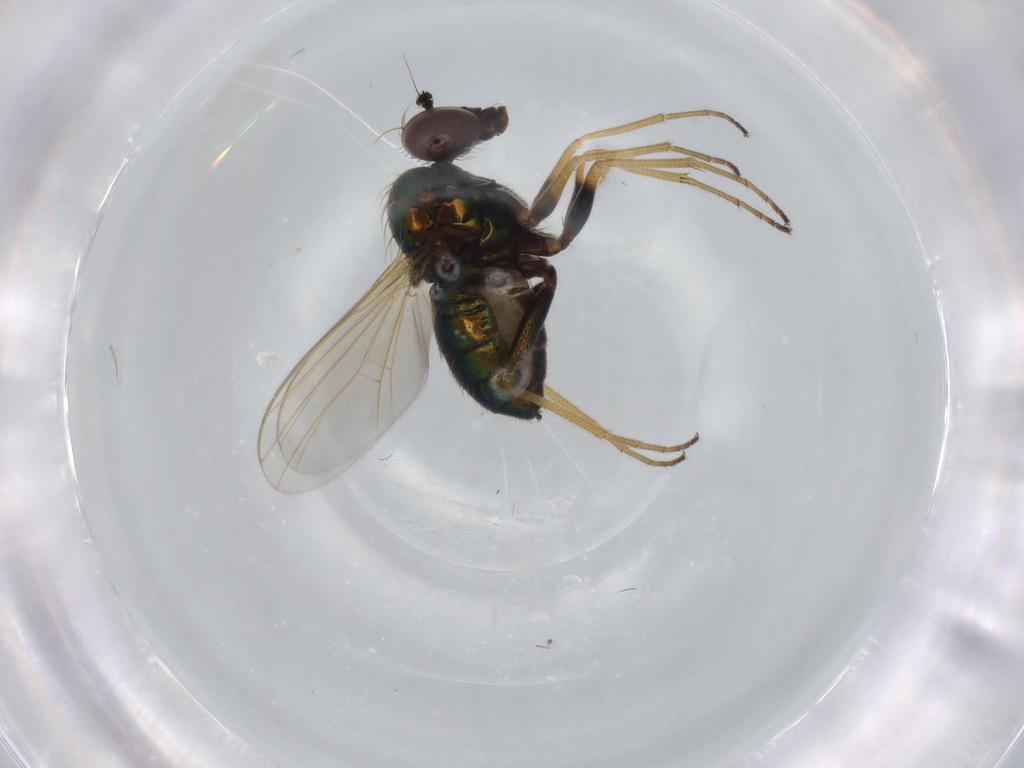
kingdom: Animalia
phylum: Arthropoda
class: Insecta
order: Diptera
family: Dolichopodidae
